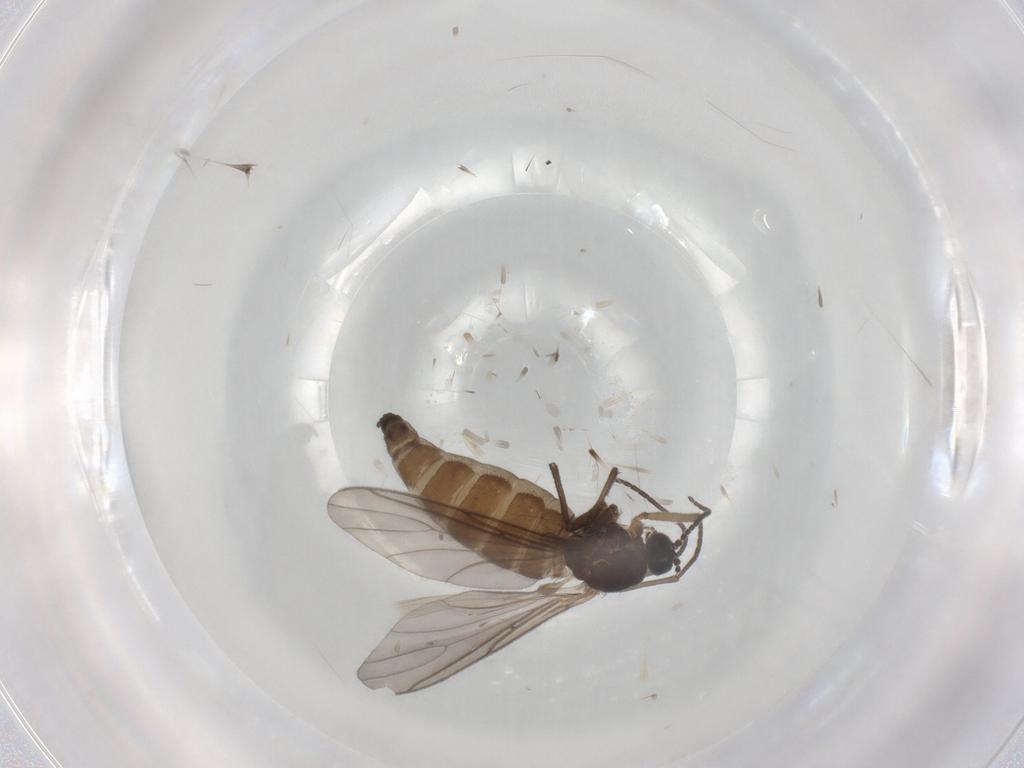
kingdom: Animalia
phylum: Arthropoda
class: Insecta
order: Diptera
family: Sciaridae
